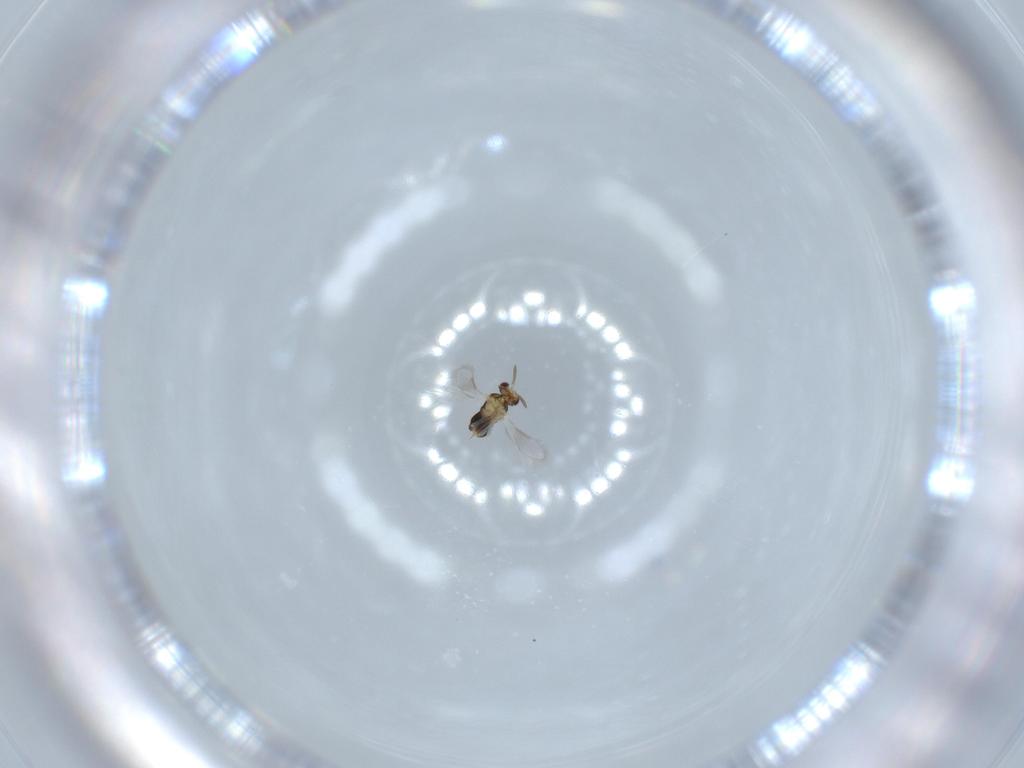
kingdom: Animalia
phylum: Arthropoda
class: Insecta
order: Hymenoptera
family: Aphelinidae
